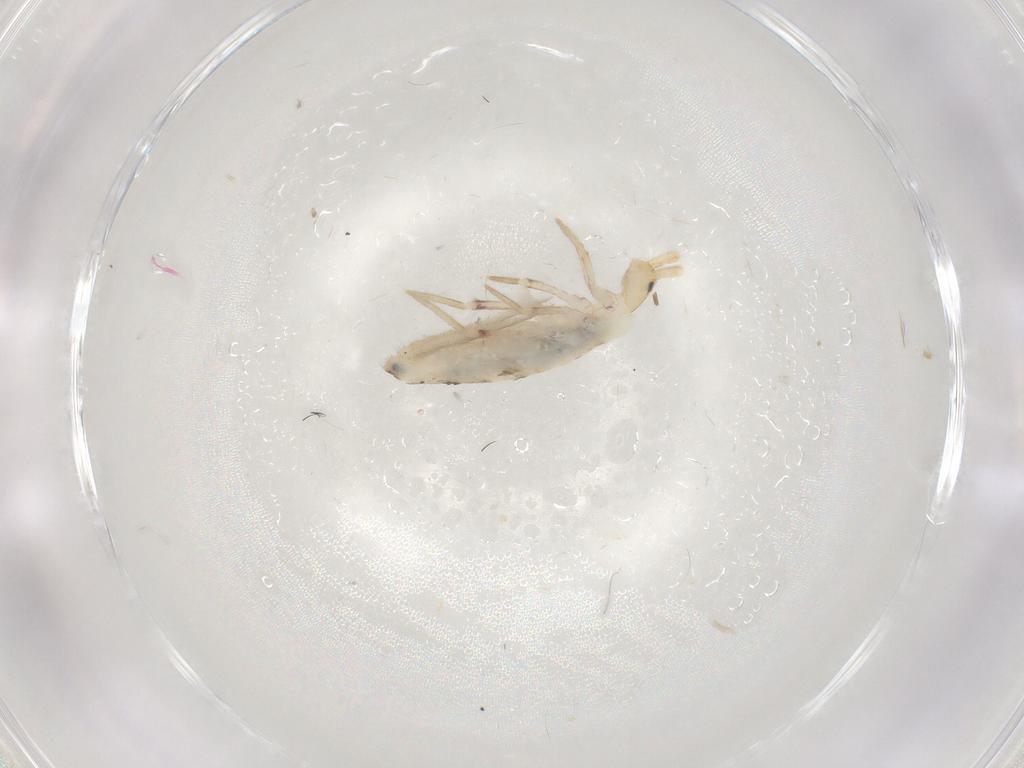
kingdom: Animalia
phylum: Arthropoda
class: Collembola
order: Poduromorpha
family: Hypogastruridae
